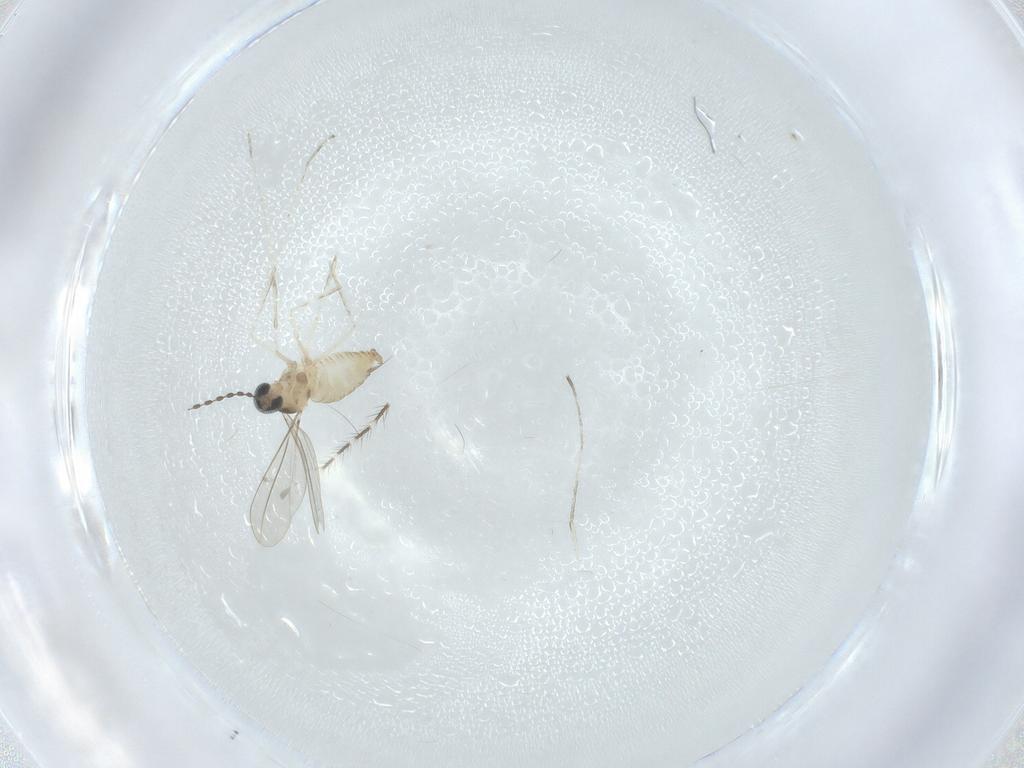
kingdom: Animalia
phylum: Arthropoda
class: Insecta
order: Diptera
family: Cecidomyiidae
